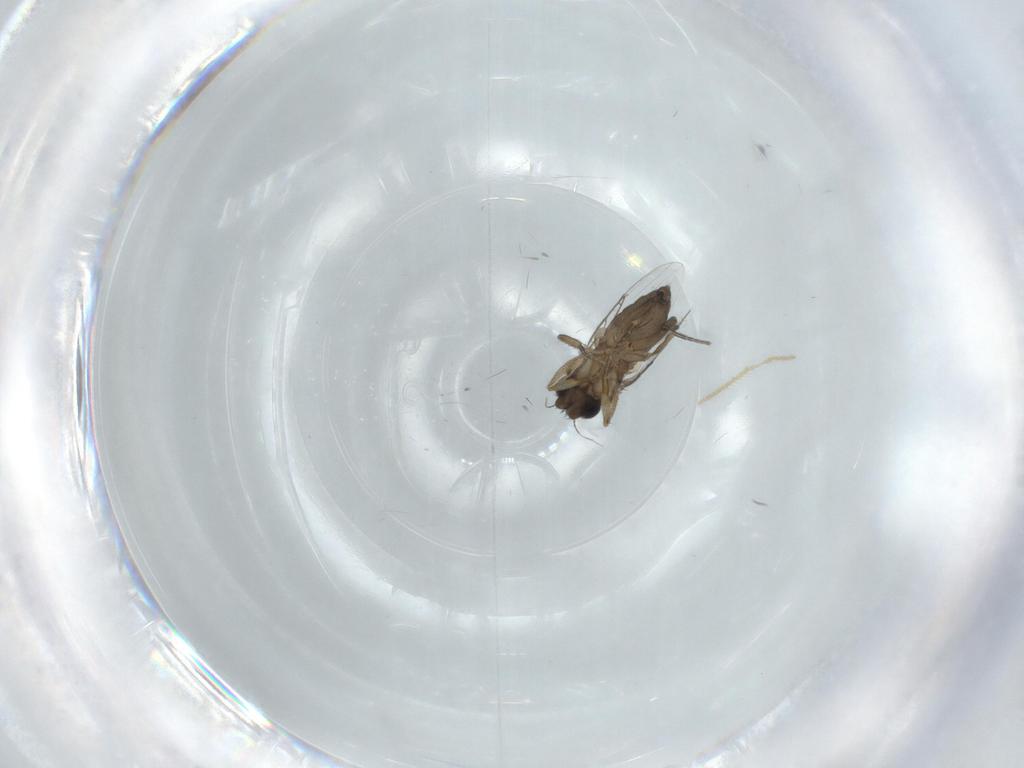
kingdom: Animalia
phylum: Arthropoda
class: Insecta
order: Diptera
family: Phoridae
